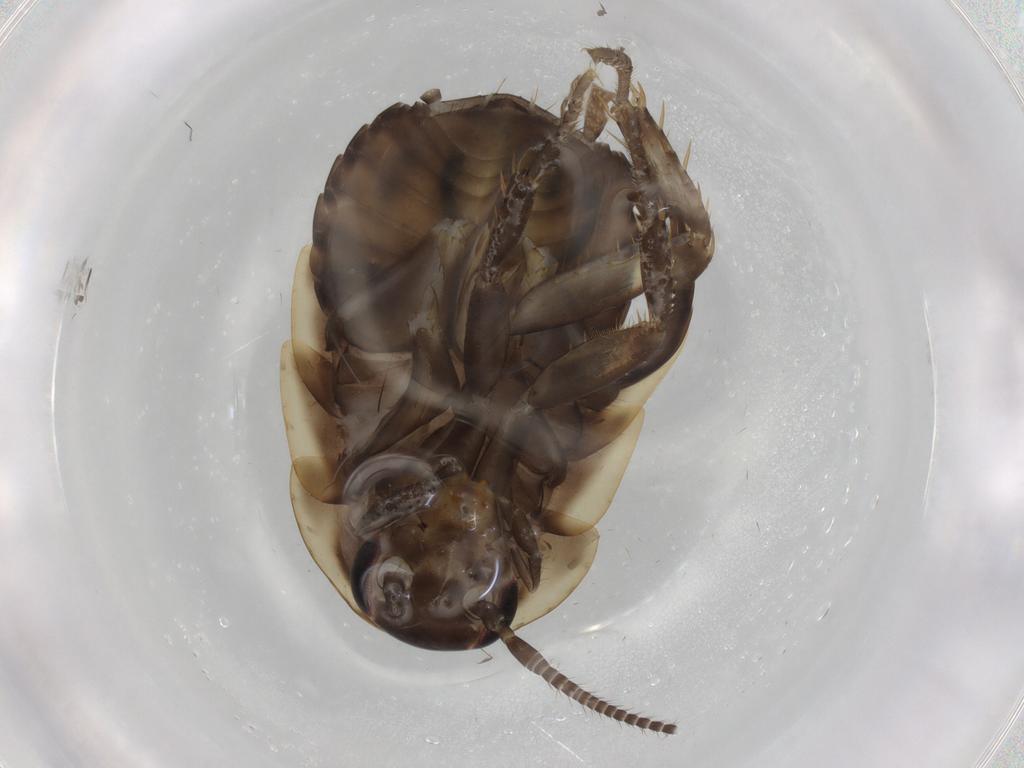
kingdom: Animalia
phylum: Arthropoda
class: Insecta
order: Blattodea
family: Ectobiidae
